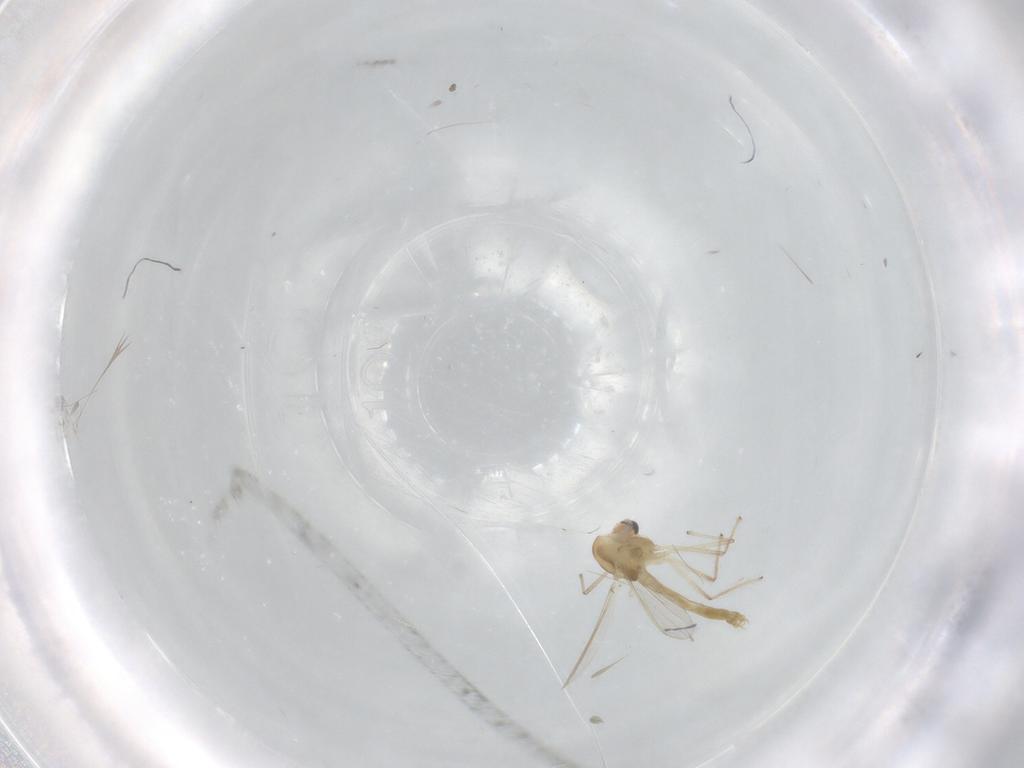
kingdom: Animalia
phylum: Arthropoda
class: Insecta
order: Diptera
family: Chironomidae
